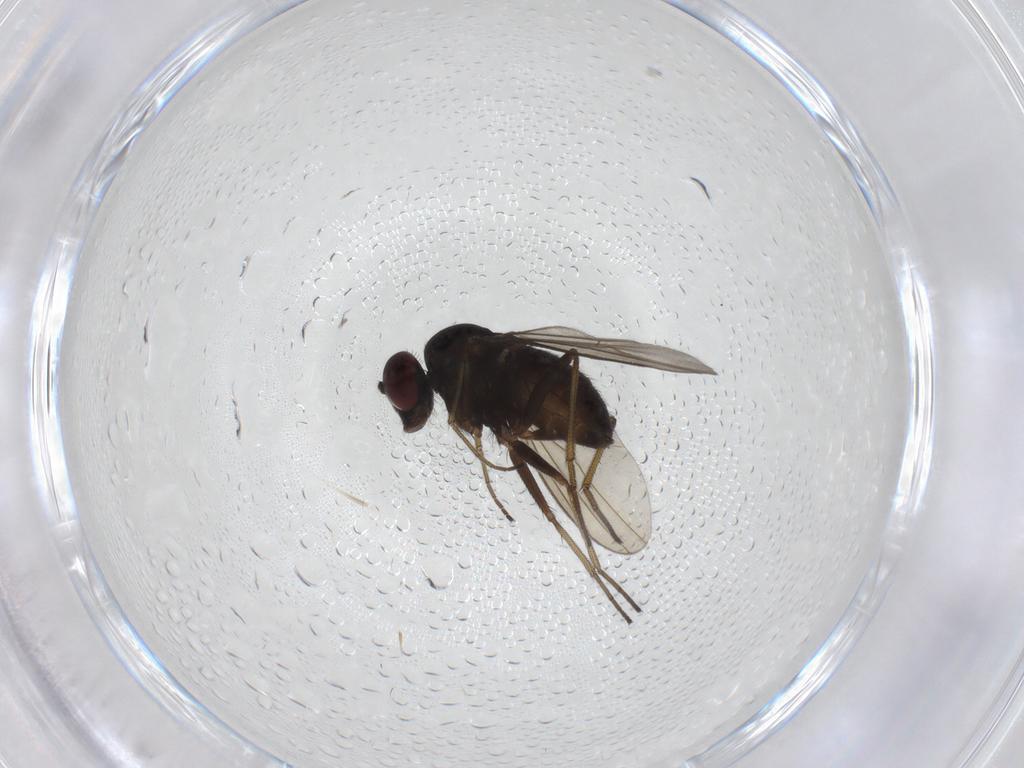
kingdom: Animalia
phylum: Arthropoda
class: Insecta
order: Diptera
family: Dolichopodidae
